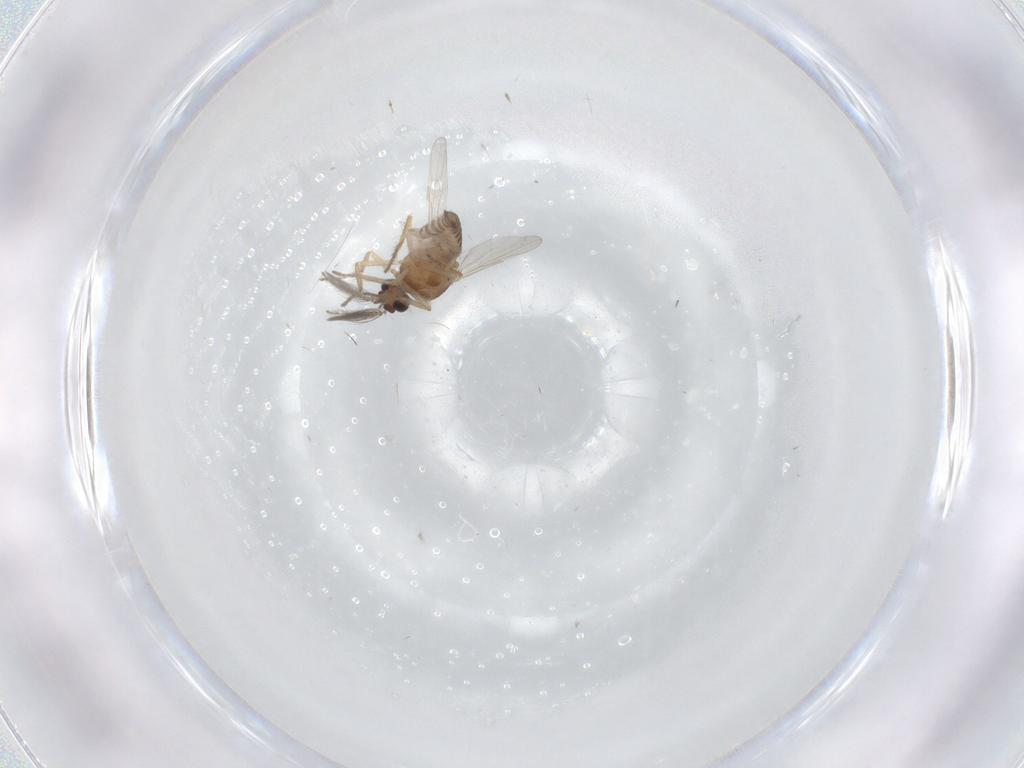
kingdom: Animalia
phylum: Arthropoda
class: Insecta
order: Diptera
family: Ceratopogonidae
